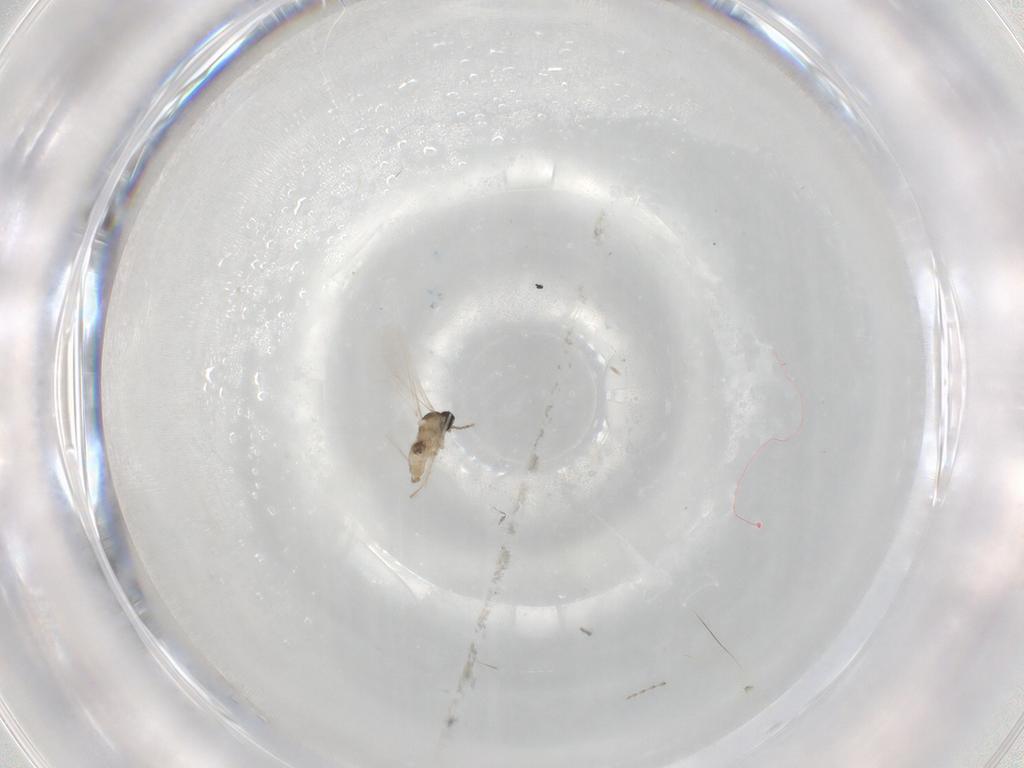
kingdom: Animalia
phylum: Arthropoda
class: Insecta
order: Diptera
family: Cecidomyiidae
